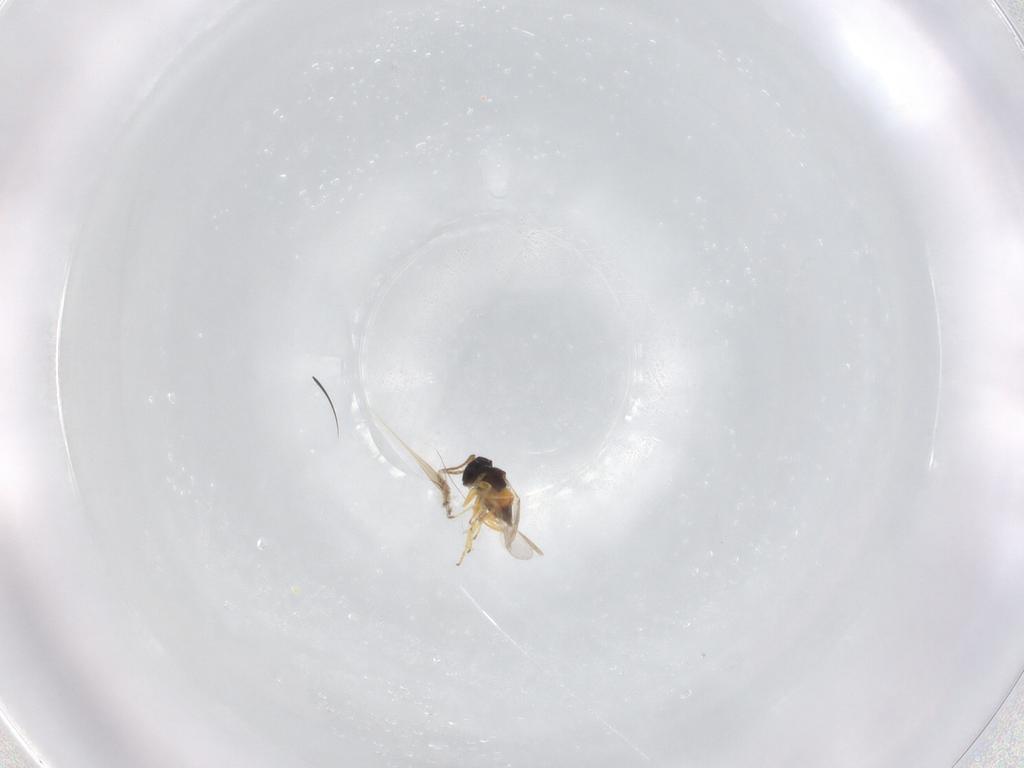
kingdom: Animalia
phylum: Arthropoda
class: Insecta
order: Hymenoptera
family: Encyrtidae
